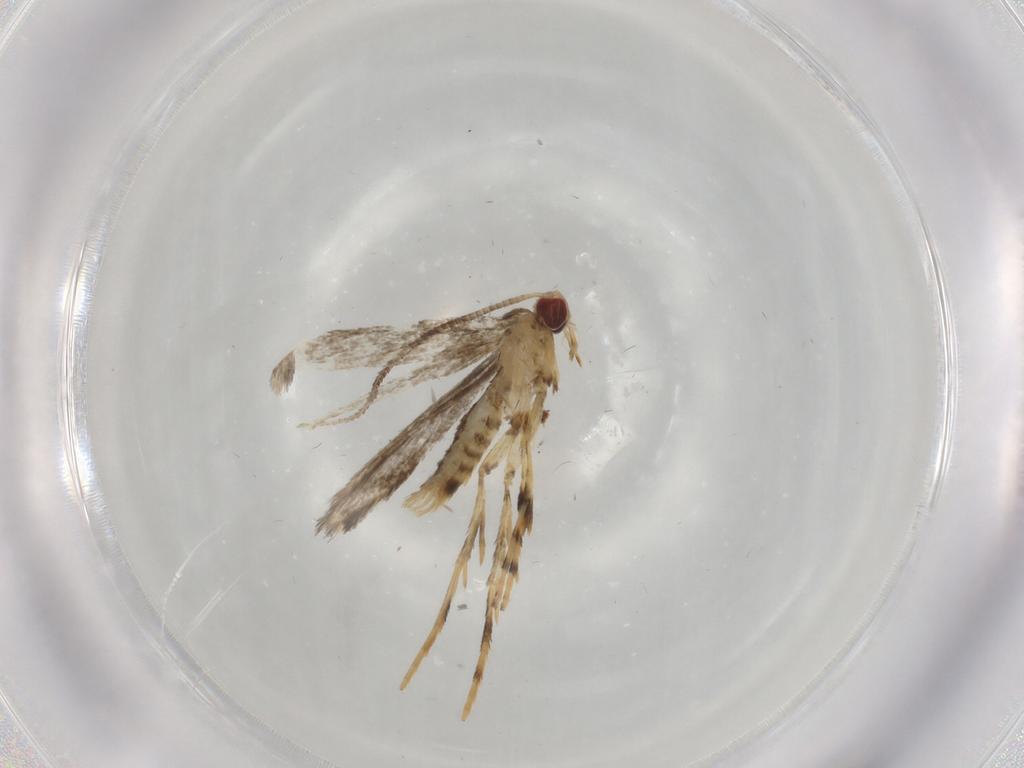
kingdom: Animalia
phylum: Arthropoda
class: Insecta
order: Lepidoptera
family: Gracillariidae
